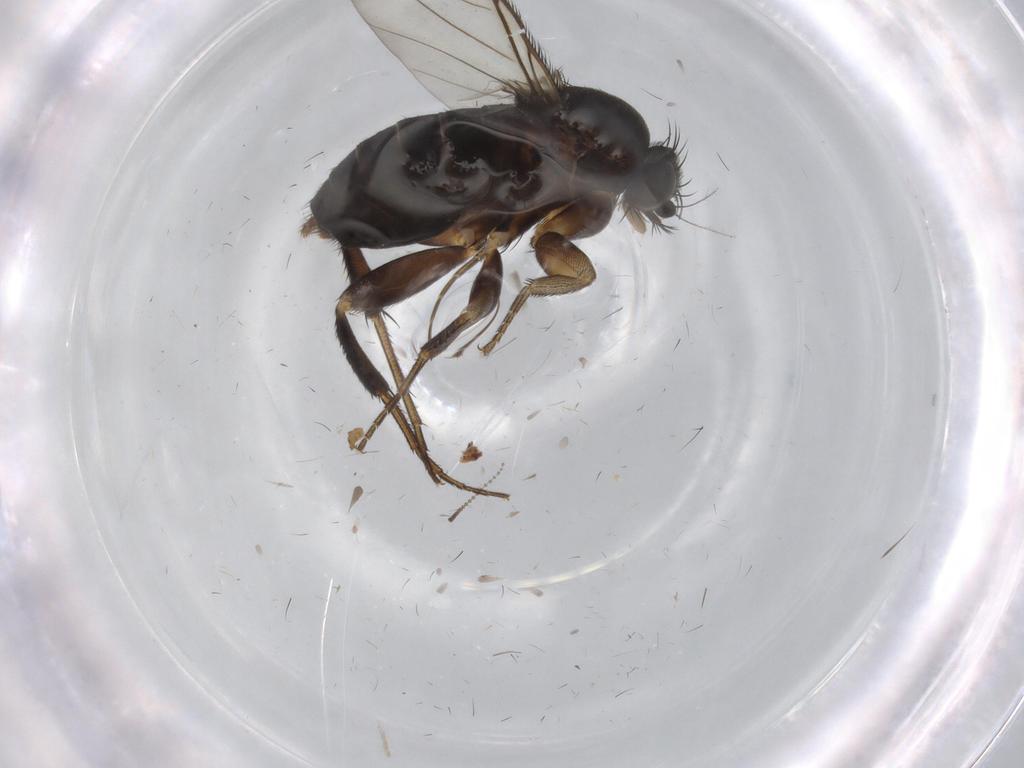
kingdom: Animalia
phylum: Arthropoda
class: Insecta
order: Diptera
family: Phoridae
